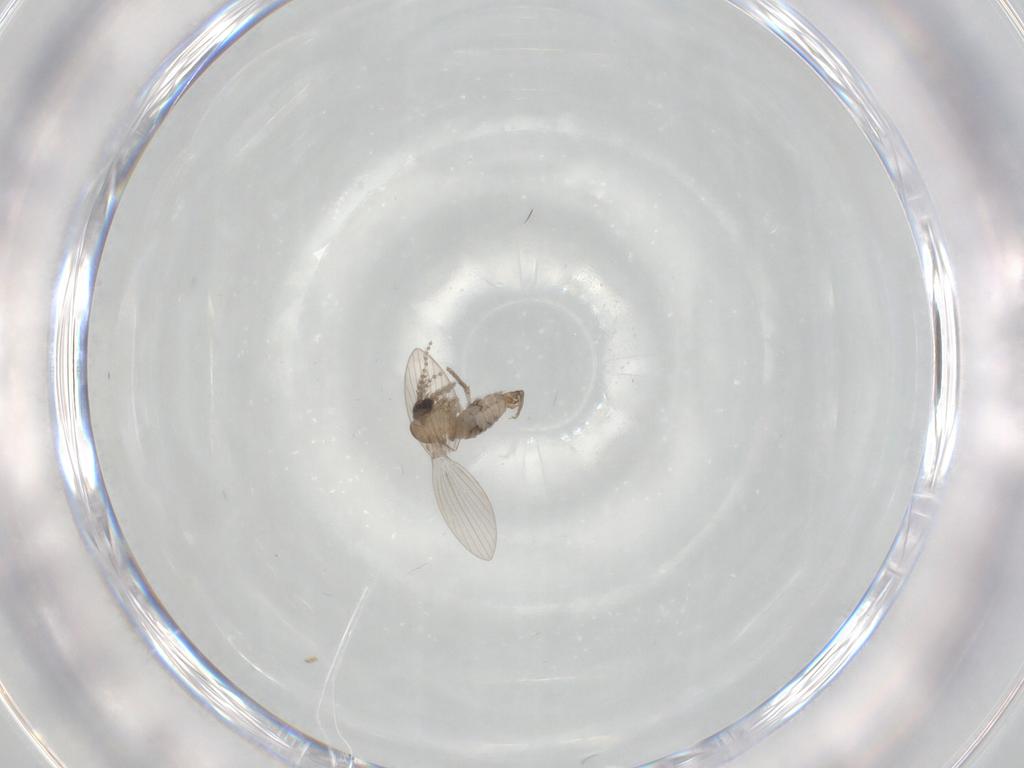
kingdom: Animalia
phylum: Arthropoda
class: Insecta
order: Diptera
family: Psychodidae
